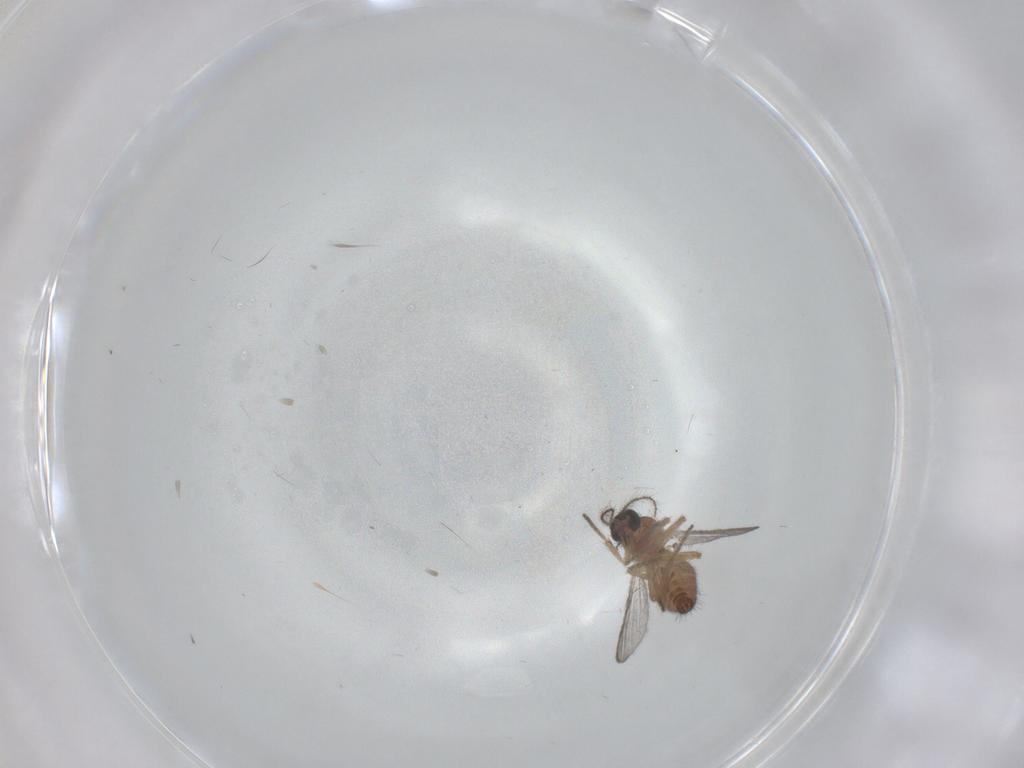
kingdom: Animalia
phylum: Arthropoda
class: Insecta
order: Diptera
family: Ceratopogonidae
